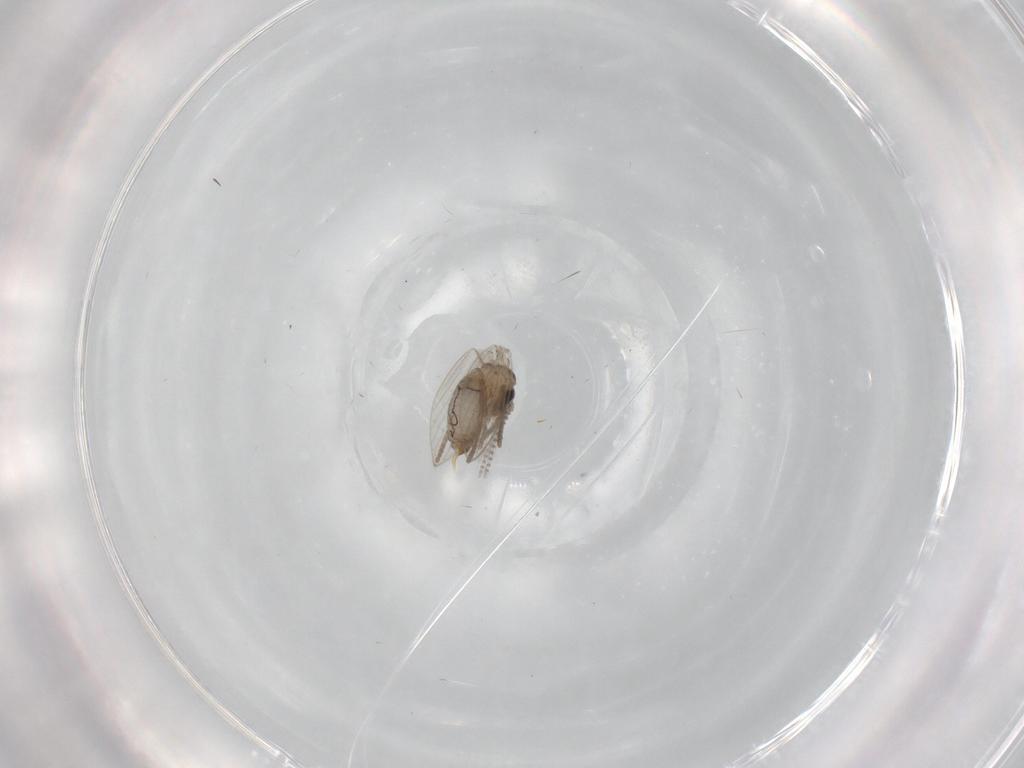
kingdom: Animalia
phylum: Arthropoda
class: Insecta
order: Diptera
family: Psychodidae
